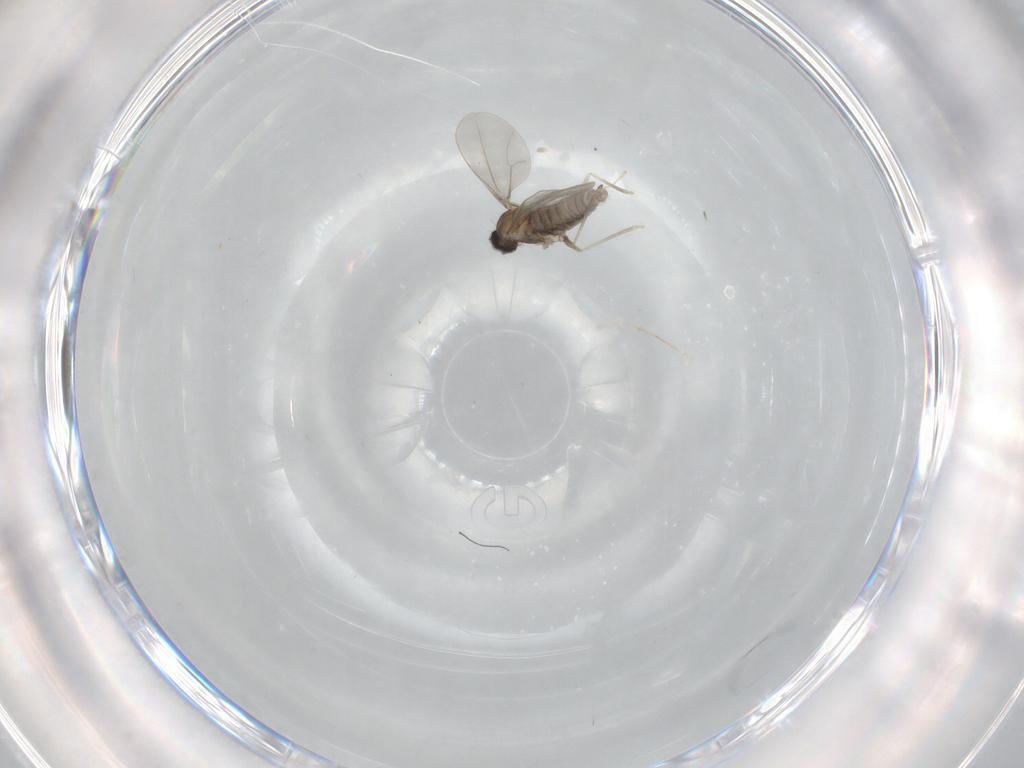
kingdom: Animalia
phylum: Arthropoda
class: Insecta
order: Diptera
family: Cecidomyiidae
